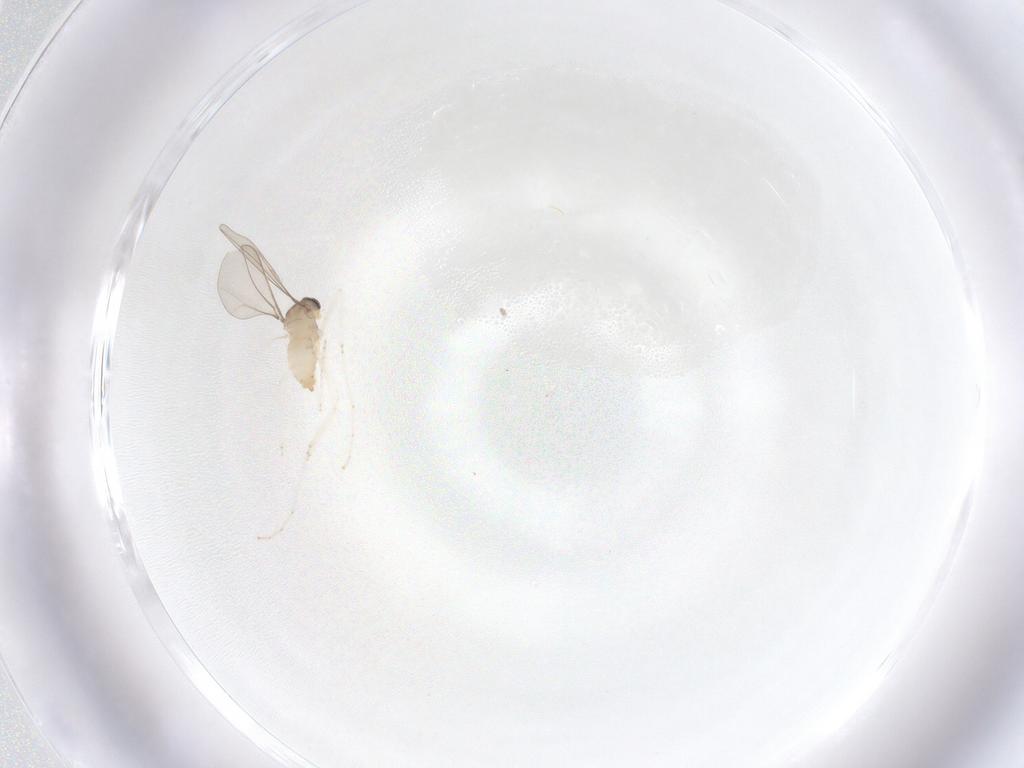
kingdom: Animalia
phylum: Arthropoda
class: Insecta
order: Diptera
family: Cecidomyiidae
